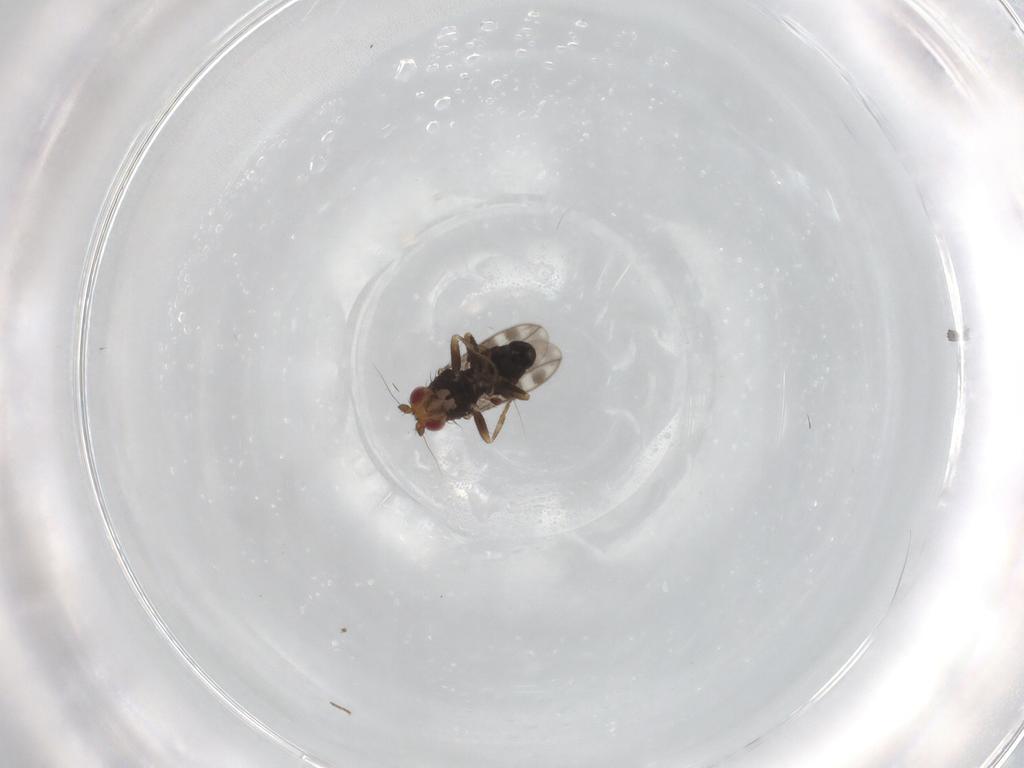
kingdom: Animalia
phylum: Arthropoda
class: Insecta
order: Diptera
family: Sphaeroceridae
